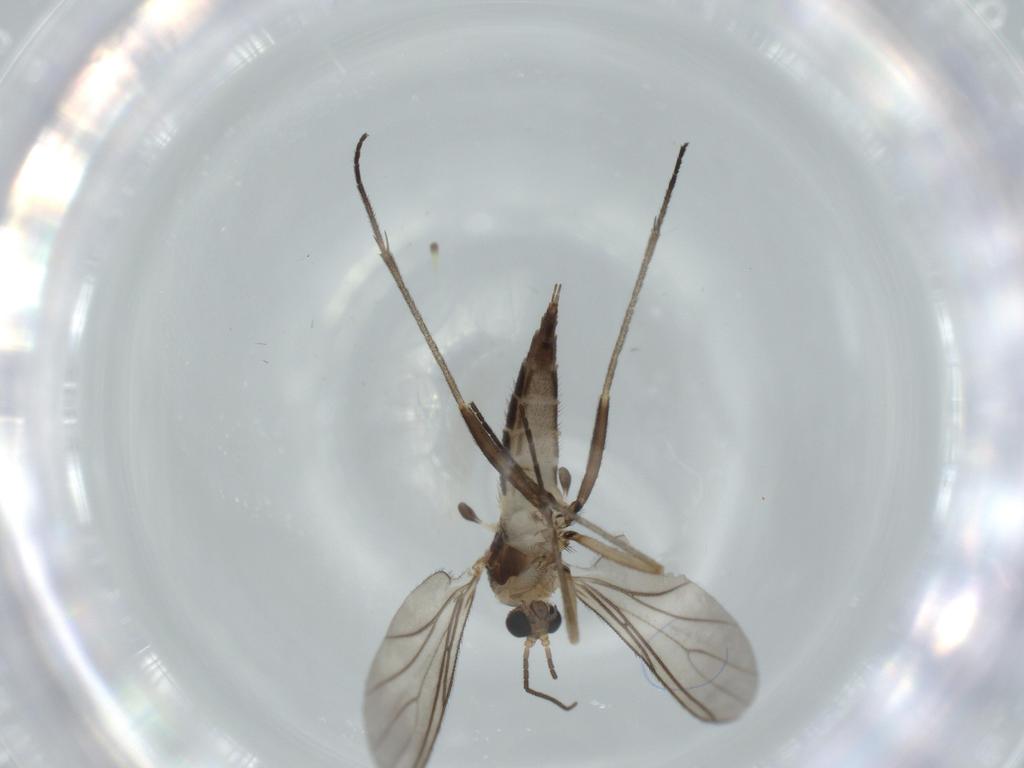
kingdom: Animalia
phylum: Arthropoda
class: Insecta
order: Diptera
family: Sciaridae
